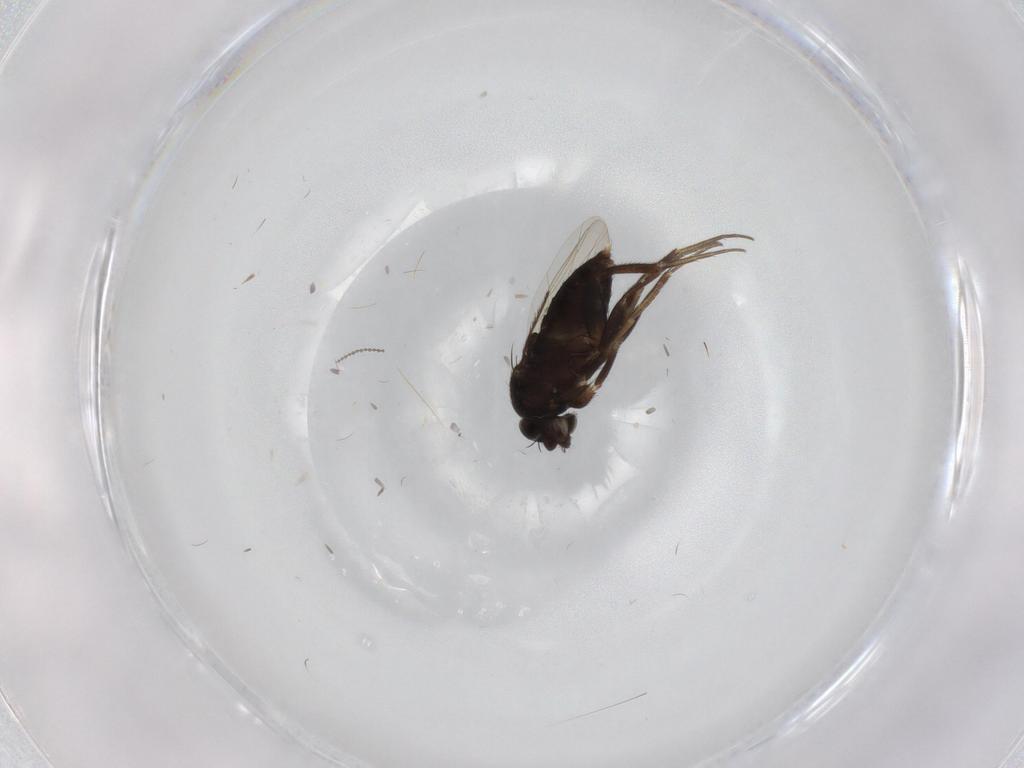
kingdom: Animalia
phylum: Arthropoda
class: Insecta
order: Diptera
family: Phoridae
